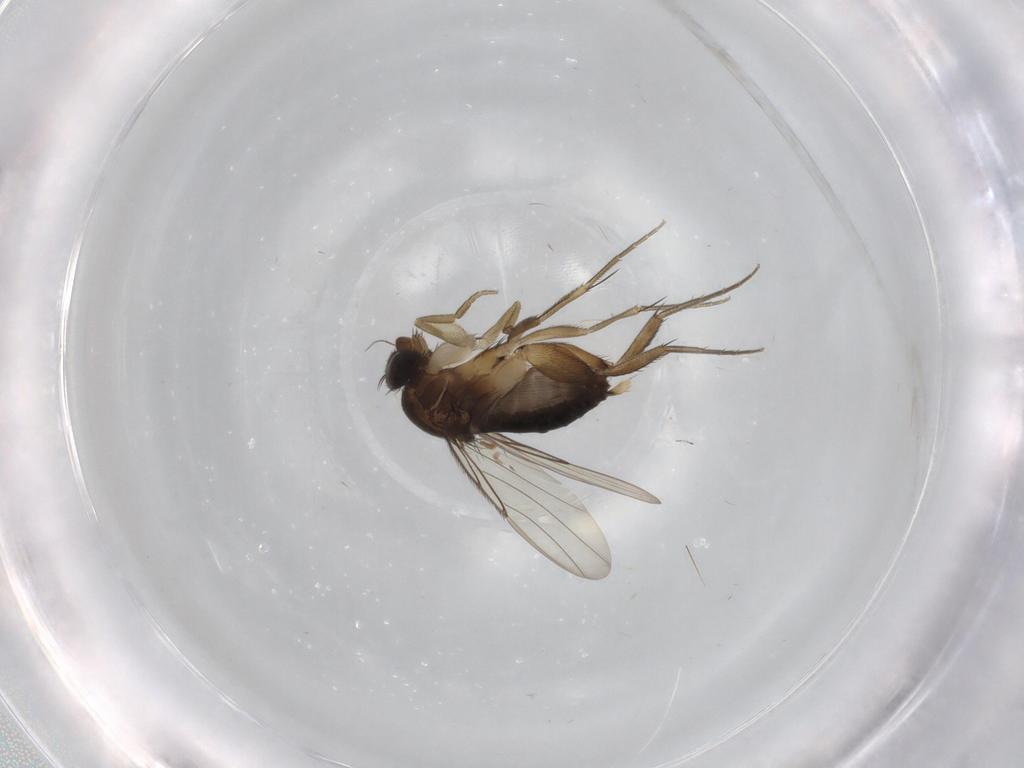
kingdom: Animalia
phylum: Arthropoda
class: Insecta
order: Diptera
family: Phoridae
